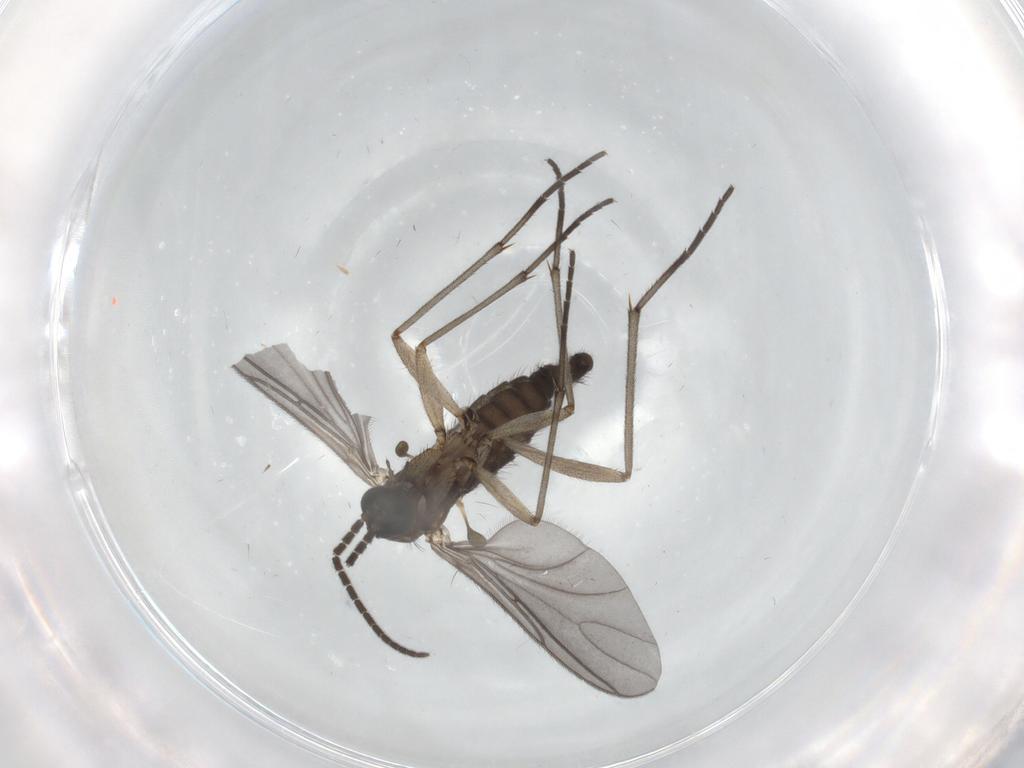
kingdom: Animalia
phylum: Arthropoda
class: Insecta
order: Diptera
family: Sciaridae
